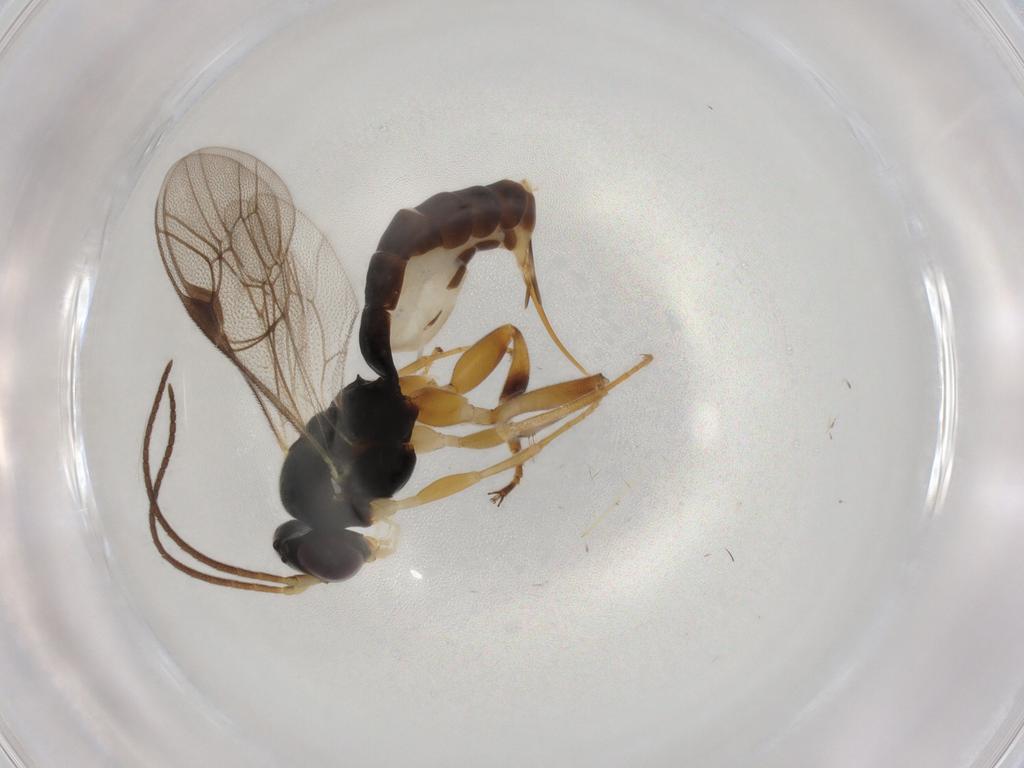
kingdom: Animalia
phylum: Arthropoda
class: Insecta
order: Hymenoptera
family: Ichneumonidae
